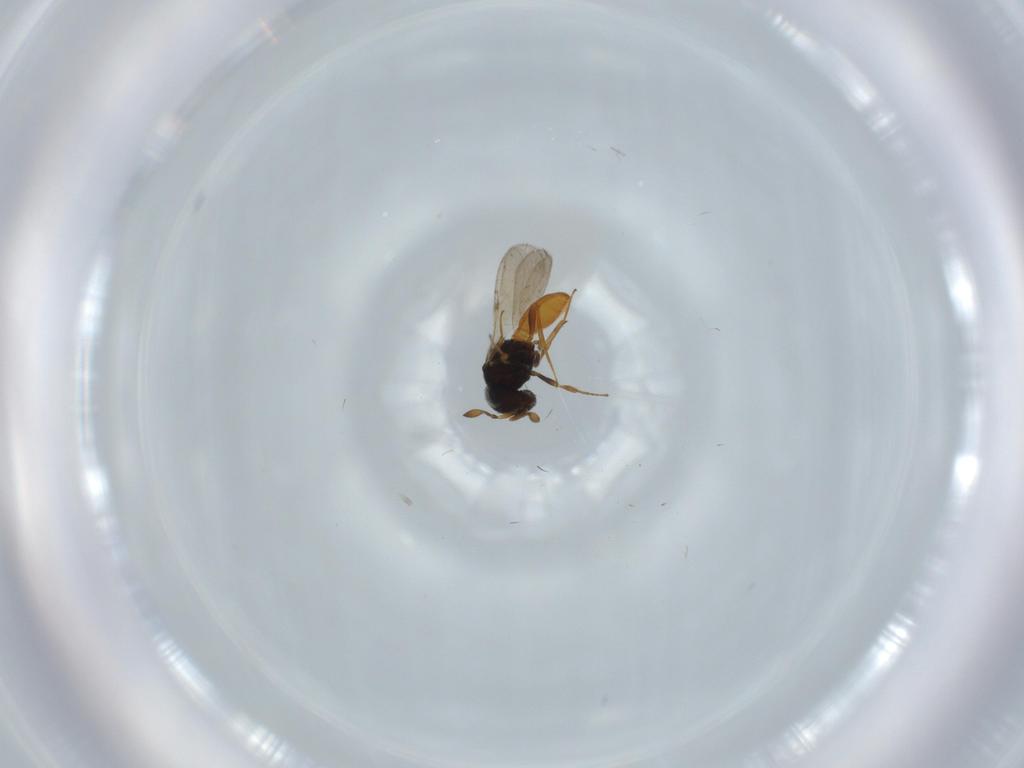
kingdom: Animalia
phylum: Arthropoda
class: Insecta
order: Hymenoptera
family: Scelionidae
